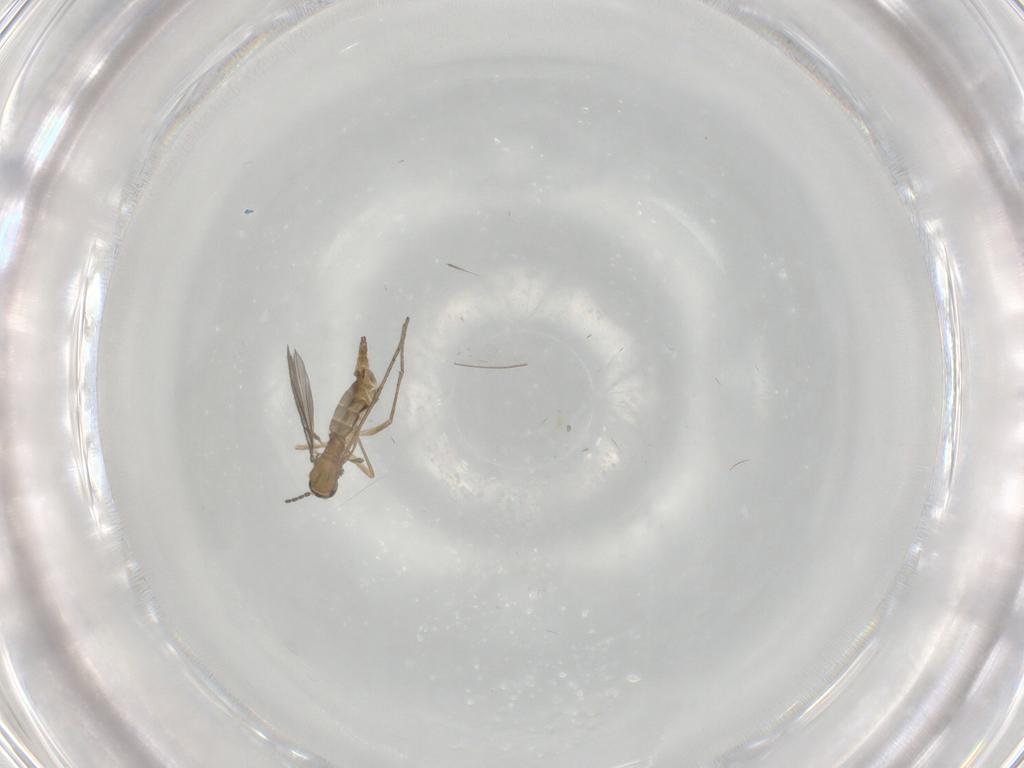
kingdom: Animalia
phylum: Arthropoda
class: Insecta
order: Diptera
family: Sciaridae
